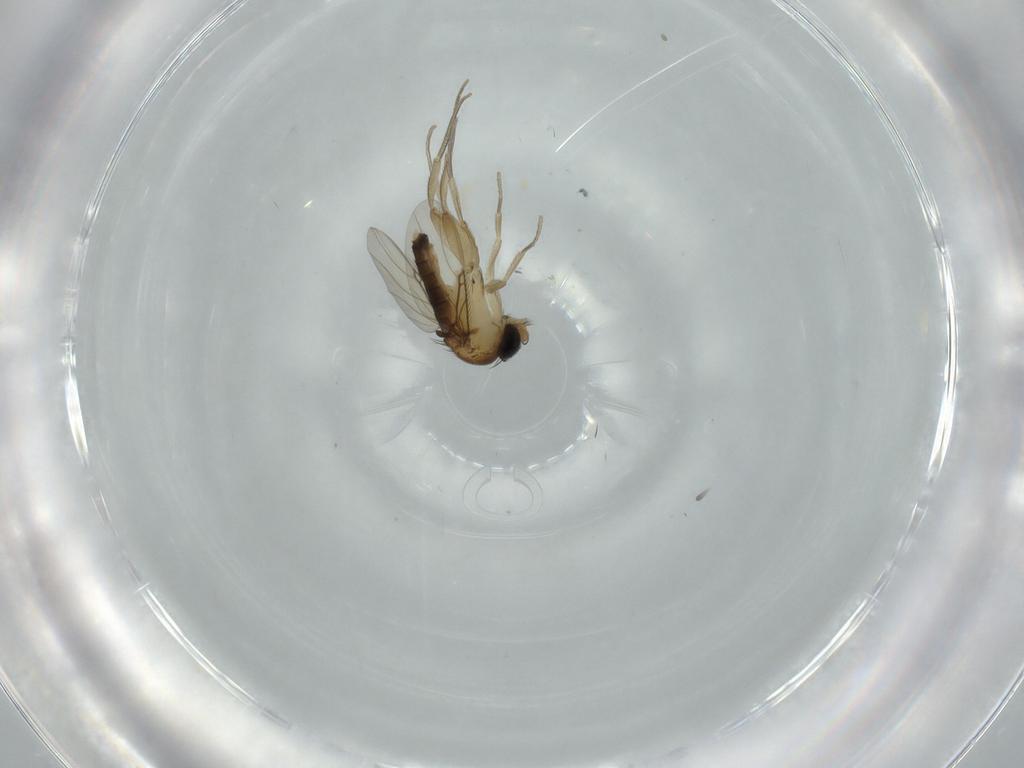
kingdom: Animalia
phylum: Arthropoda
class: Insecta
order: Diptera
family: Phoridae
